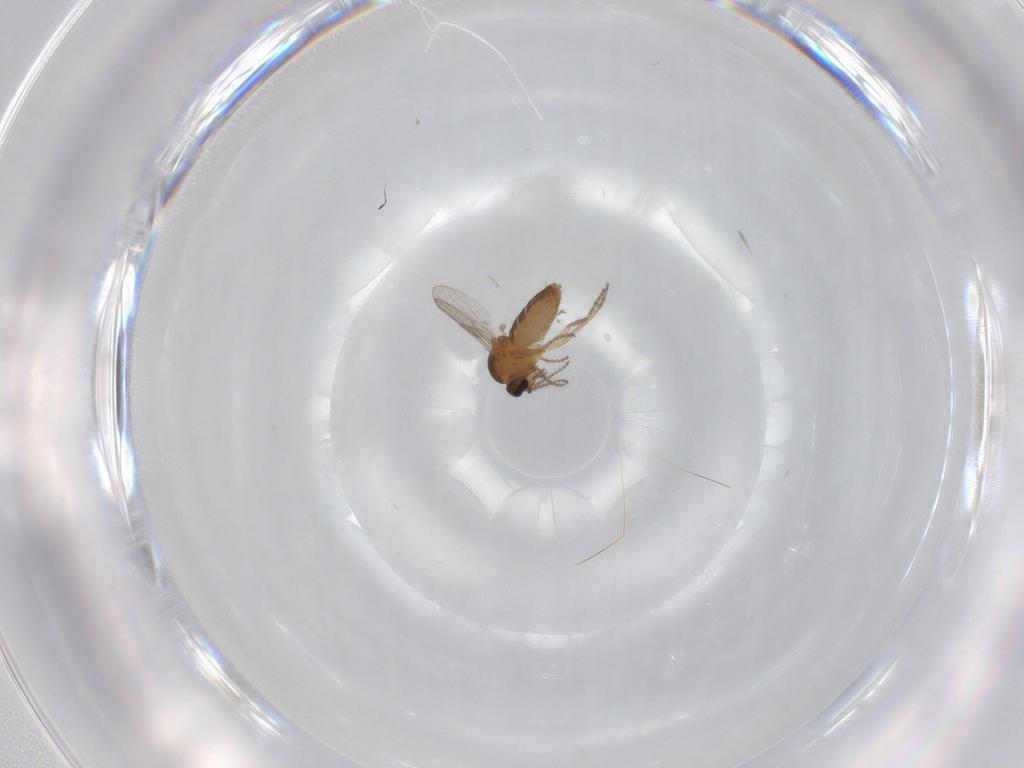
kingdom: Animalia
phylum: Arthropoda
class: Insecta
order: Diptera
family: Ceratopogonidae
